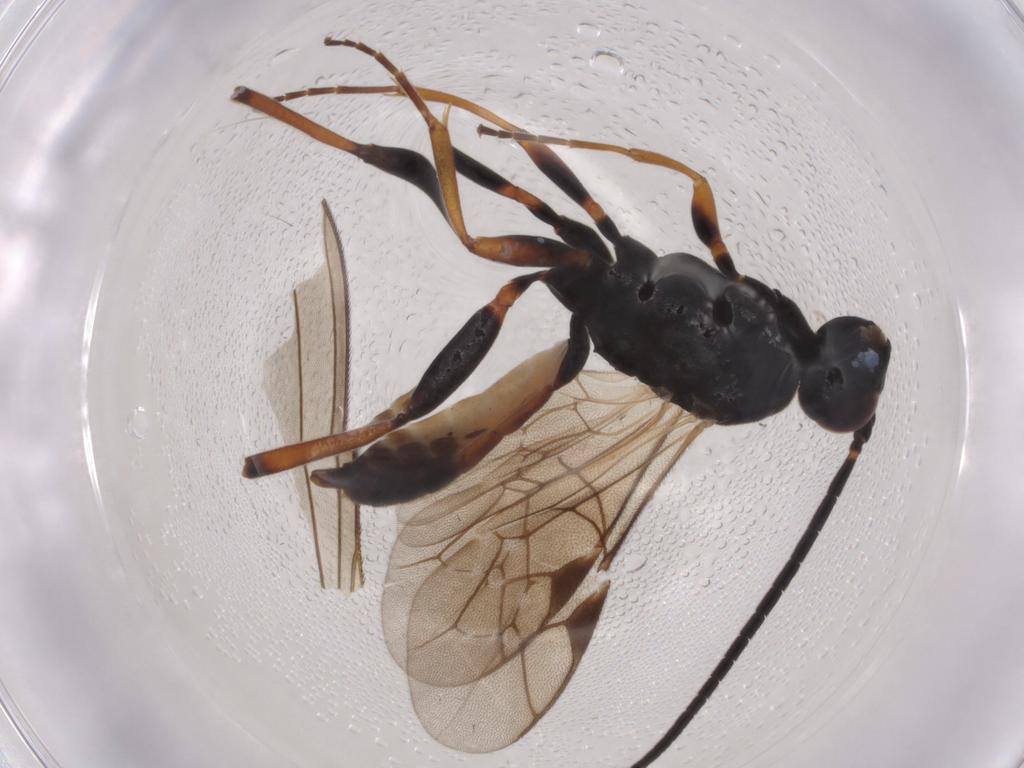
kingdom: Animalia
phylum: Arthropoda
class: Insecta
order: Hymenoptera
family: Ichneumonidae
